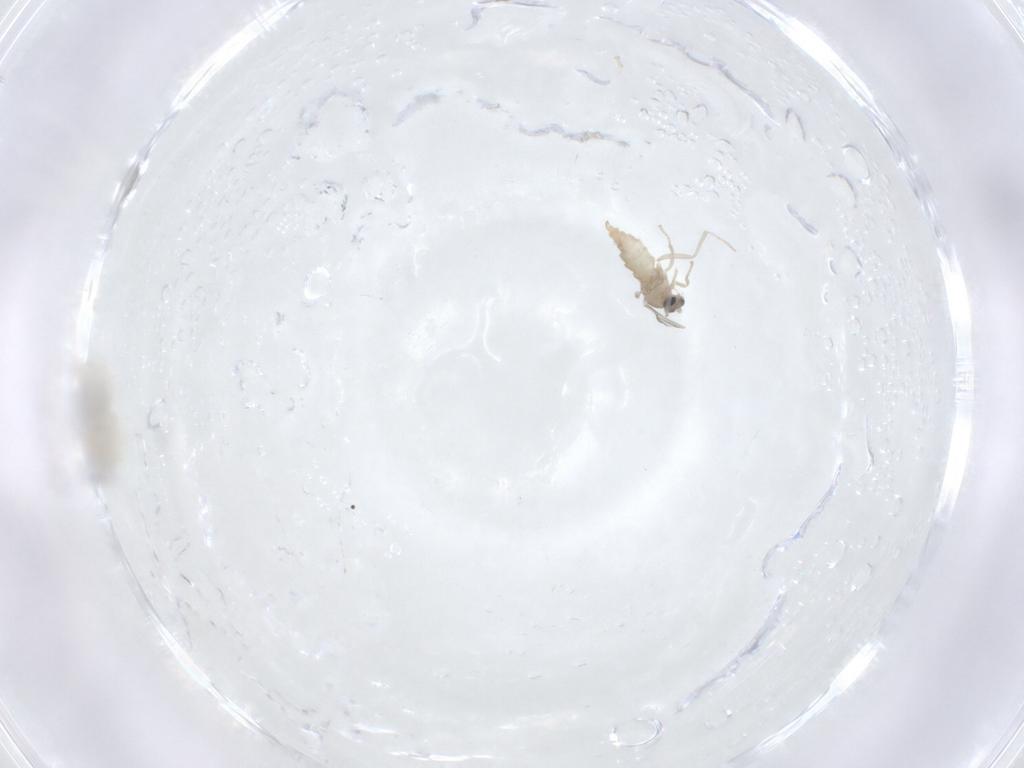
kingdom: Animalia
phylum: Arthropoda
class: Insecta
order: Diptera
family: Cecidomyiidae
